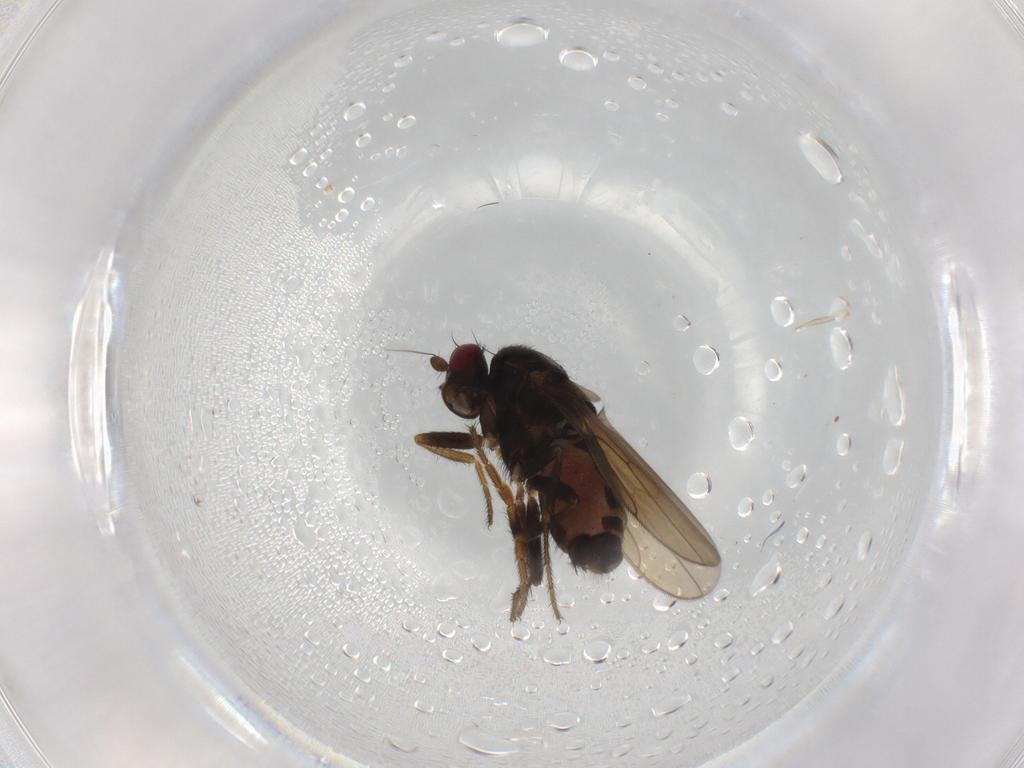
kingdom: Animalia
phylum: Arthropoda
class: Insecta
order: Diptera
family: Sphaeroceridae
